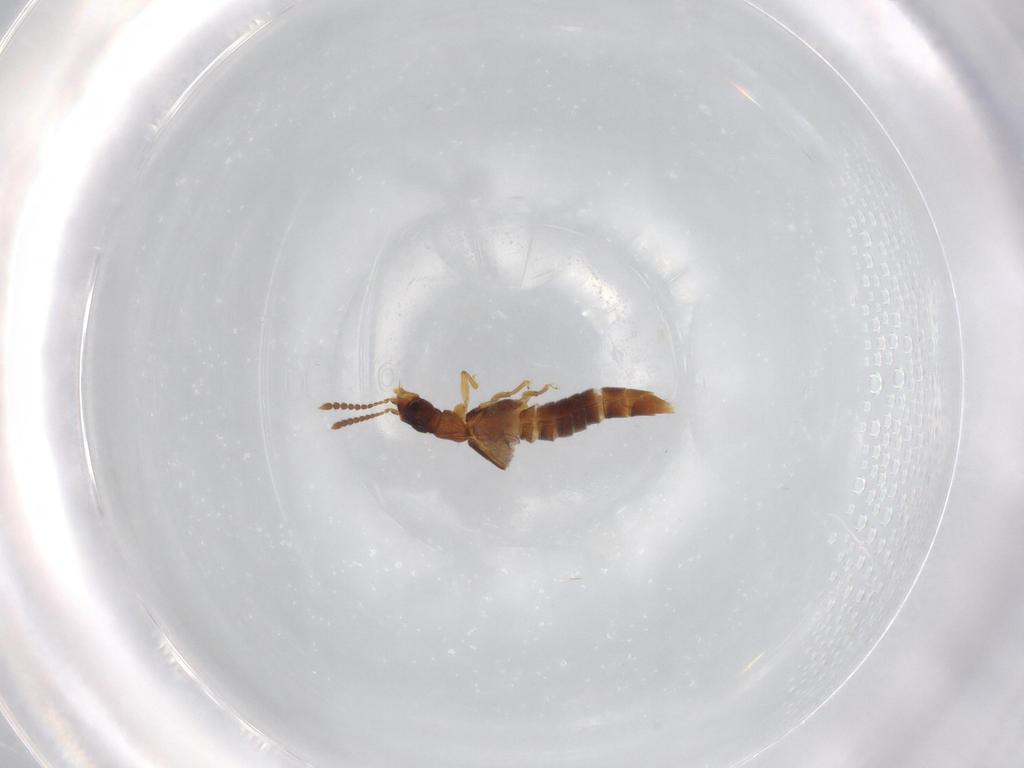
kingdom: Animalia
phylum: Arthropoda
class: Insecta
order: Coleoptera
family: Staphylinidae
